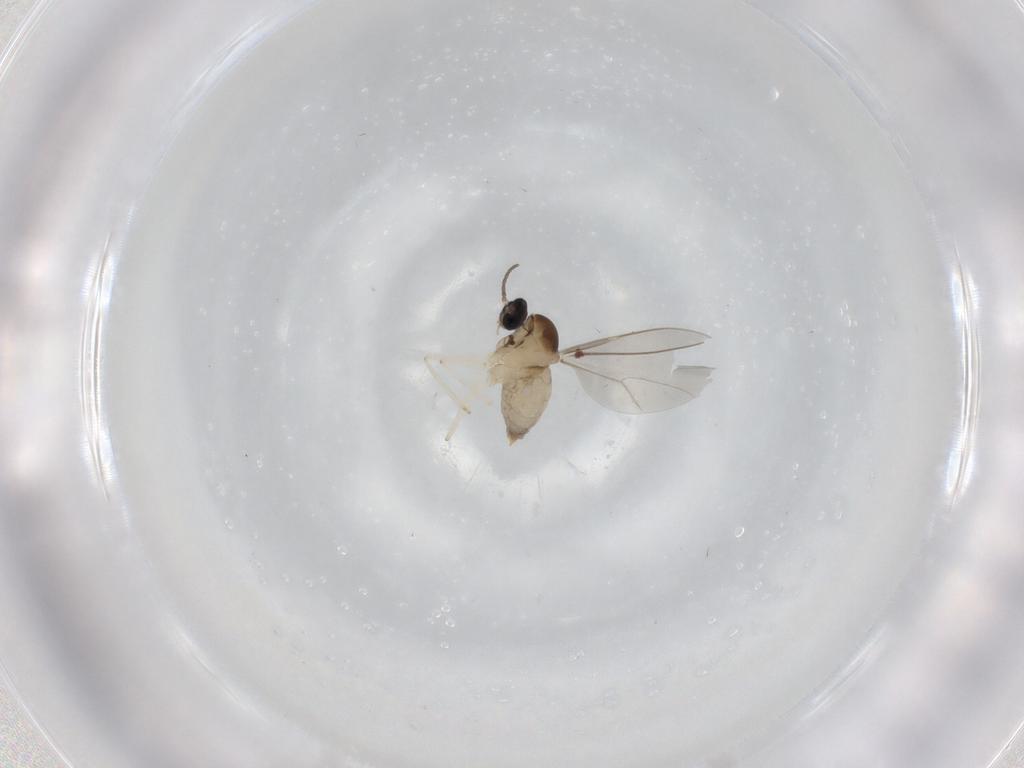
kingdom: Animalia
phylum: Arthropoda
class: Insecta
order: Diptera
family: Cecidomyiidae
